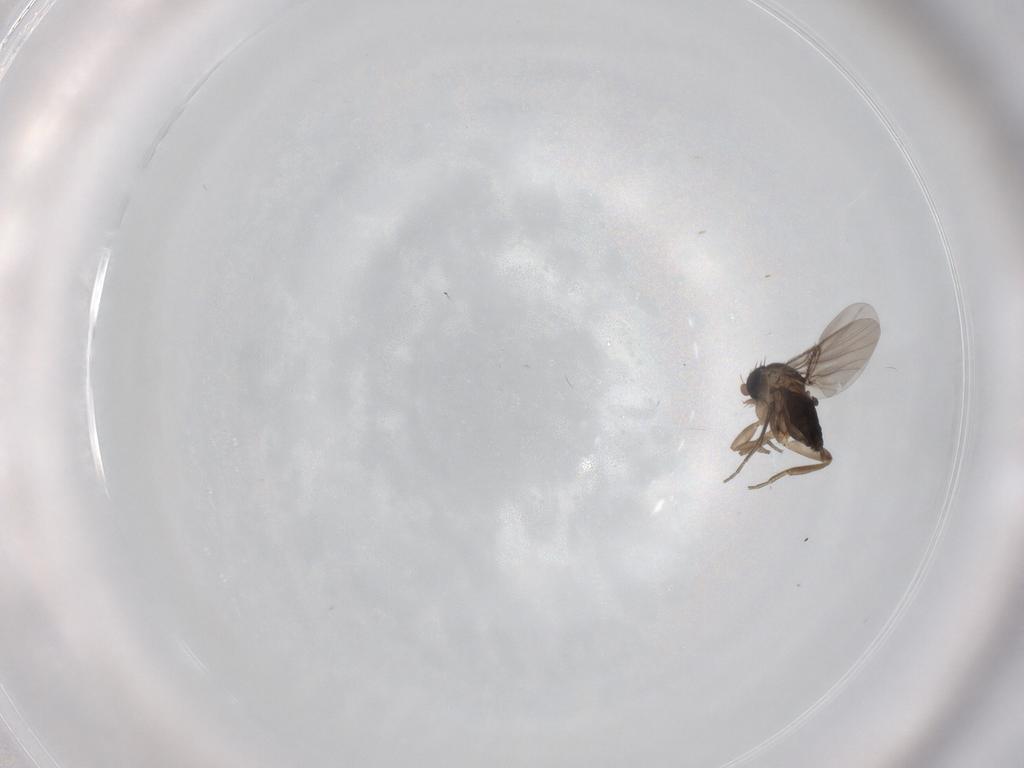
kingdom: Animalia
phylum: Arthropoda
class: Insecta
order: Diptera
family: Phoridae
